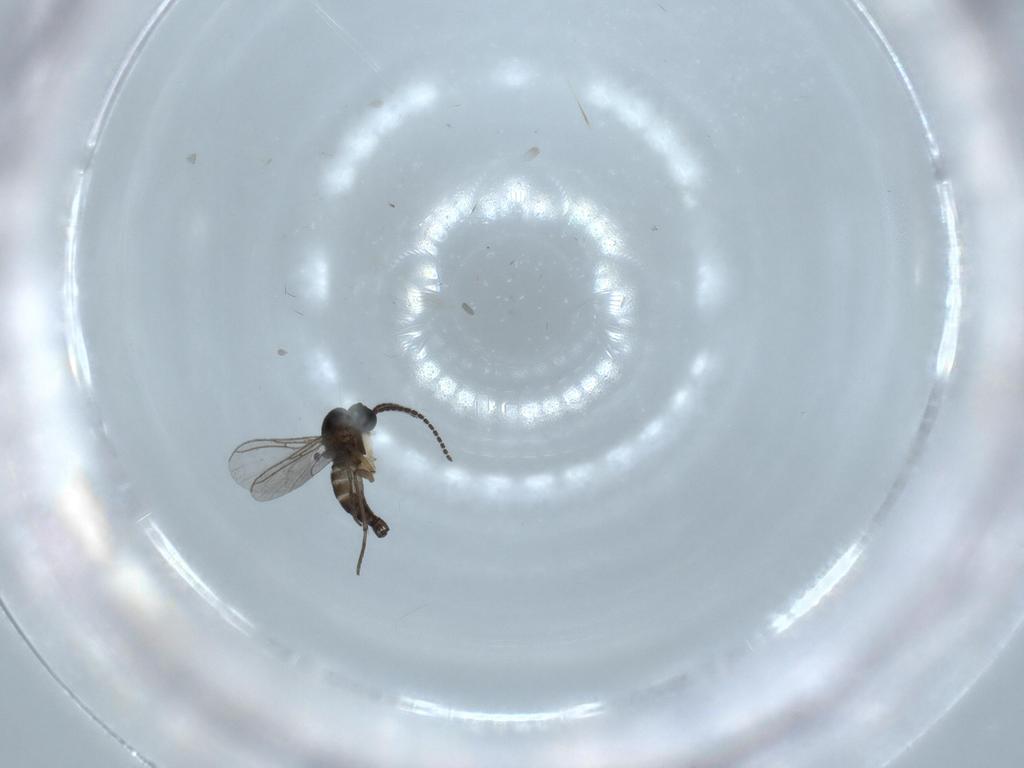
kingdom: Animalia
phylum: Arthropoda
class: Insecta
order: Diptera
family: Sciaridae
